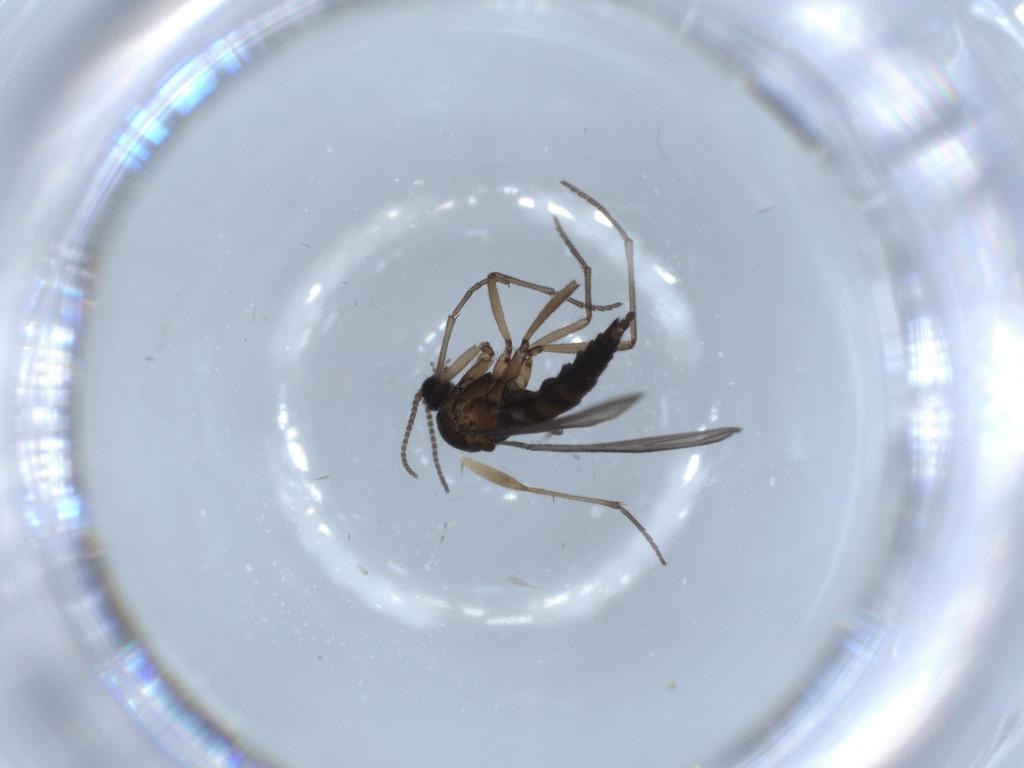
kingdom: Animalia
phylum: Arthropoda
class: Insecta
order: Diptera
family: Sciaridae
